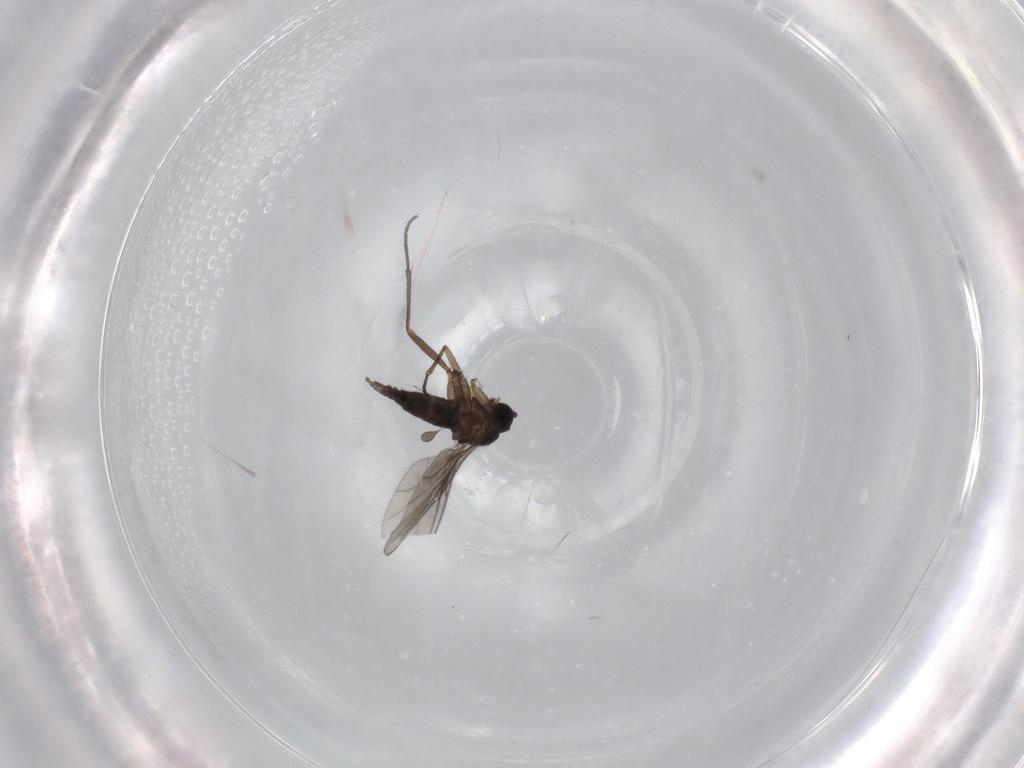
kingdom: Animalia
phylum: Arthropoda
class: Insecta
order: Diptera
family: Sciaridae
